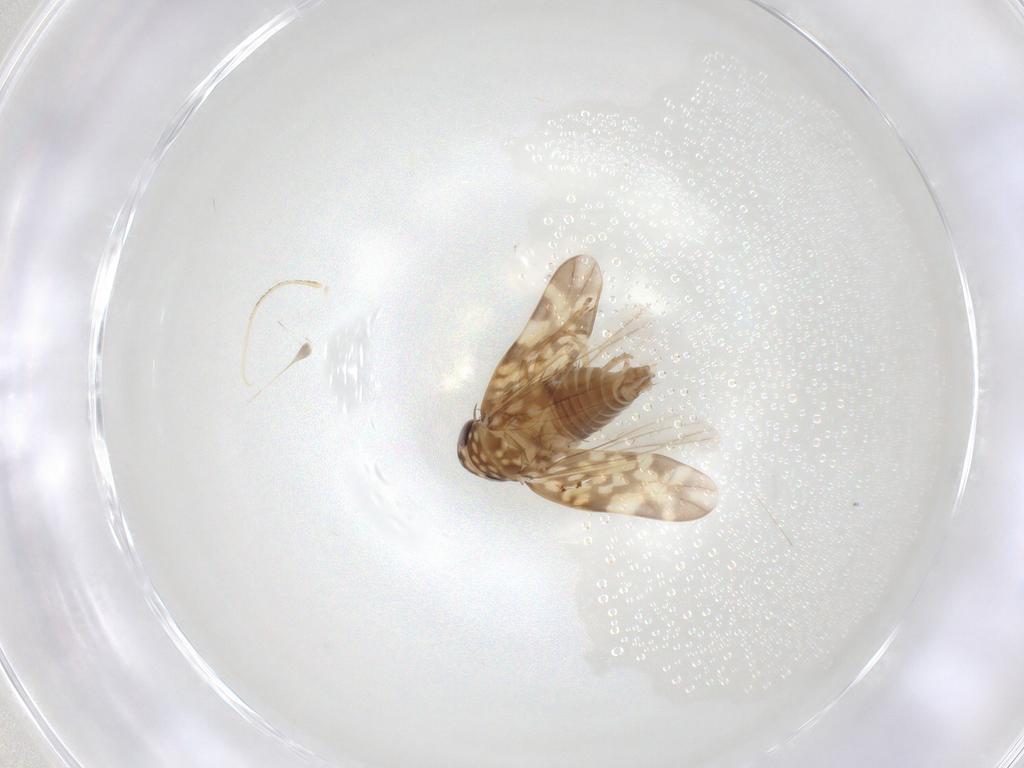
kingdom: Animalia
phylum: Arthropoda
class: Insecta
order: Hemiptera
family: Cicadellidae
